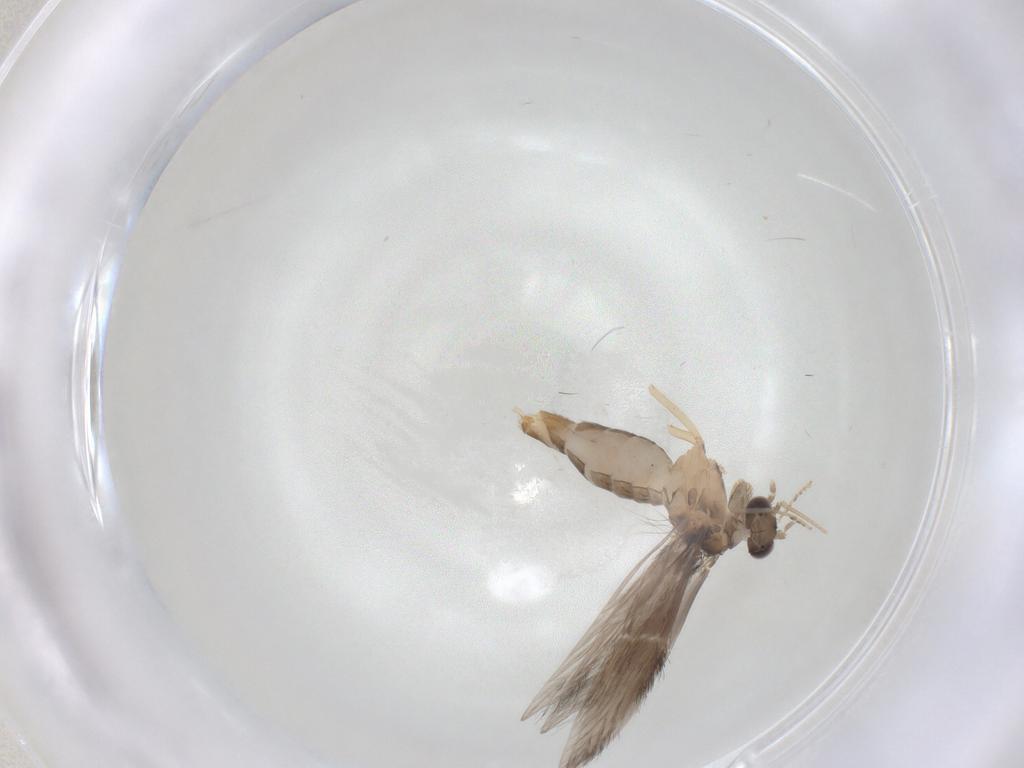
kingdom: Animalia
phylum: Arthropoda
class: Insecta
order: Trichoptera
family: Hydroptilidae
